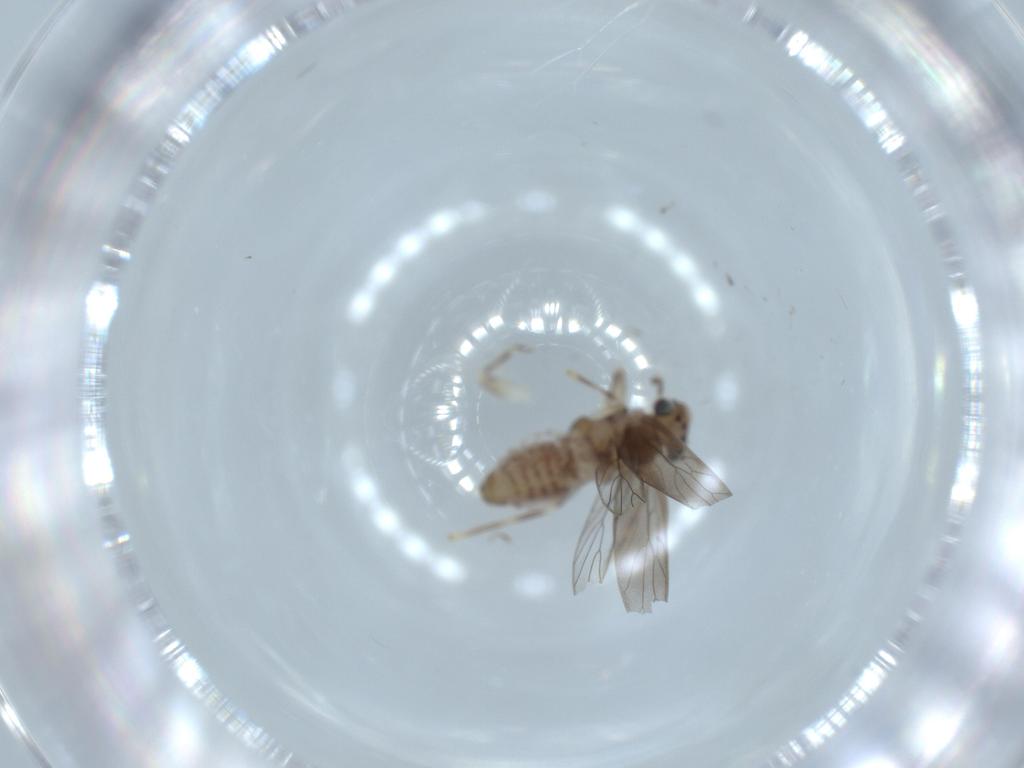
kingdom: Animalia
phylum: Arthropoda
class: Insecta
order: Psocodea
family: Lepidopsocidae
